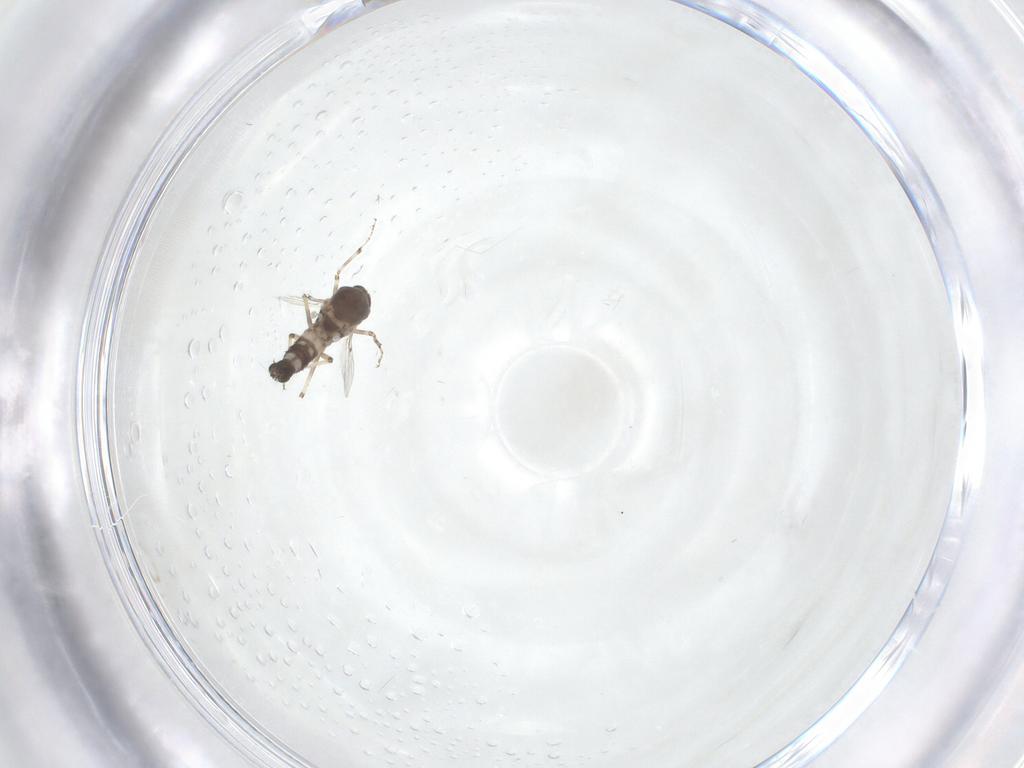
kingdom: Animalia
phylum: Arthropoda
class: Insecta
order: Diptera
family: Ceratopogonidae
